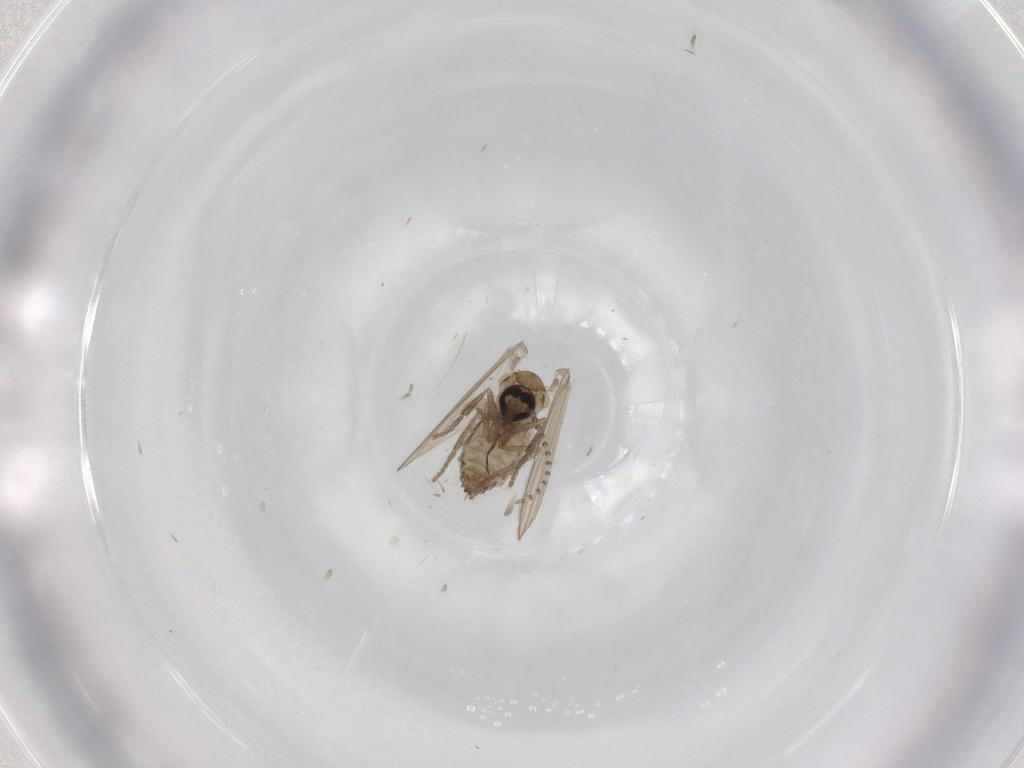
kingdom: Animalia
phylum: Arthropoda
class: Insecta
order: Diptera
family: Psychodidae
